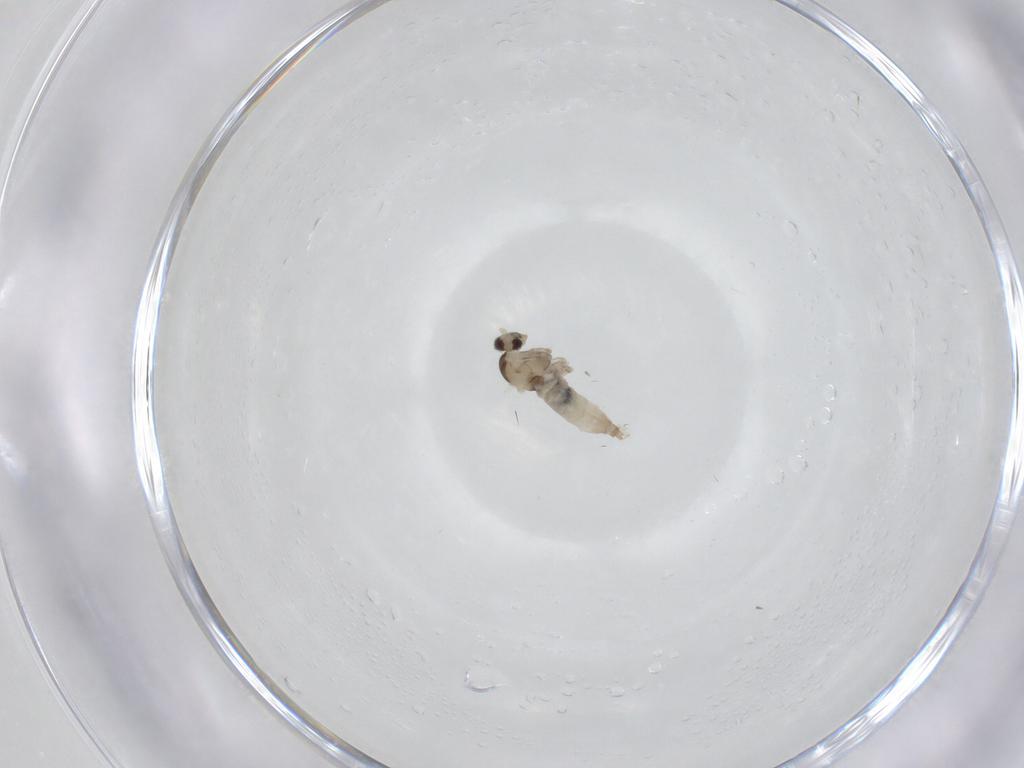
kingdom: Animalia
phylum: Arthropoda
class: Insecta
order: Diptera
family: Cecidomyiidae
